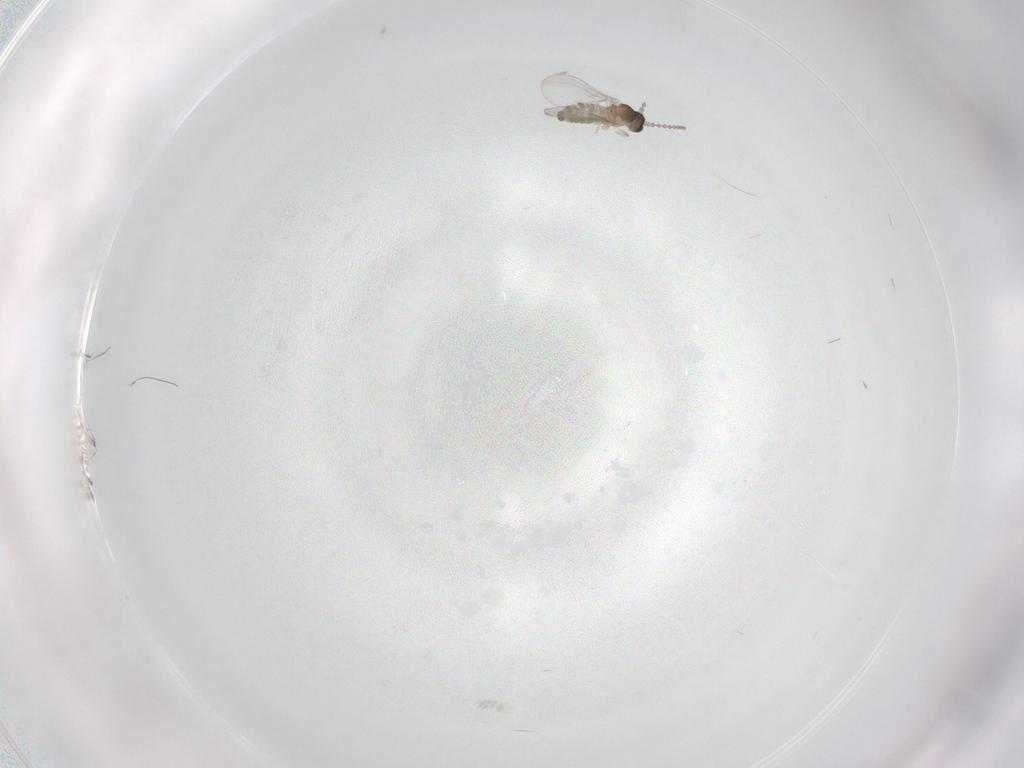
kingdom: Animalia
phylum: Arthropoda
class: Insecta
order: Diptera
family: Cecidomyiidae
